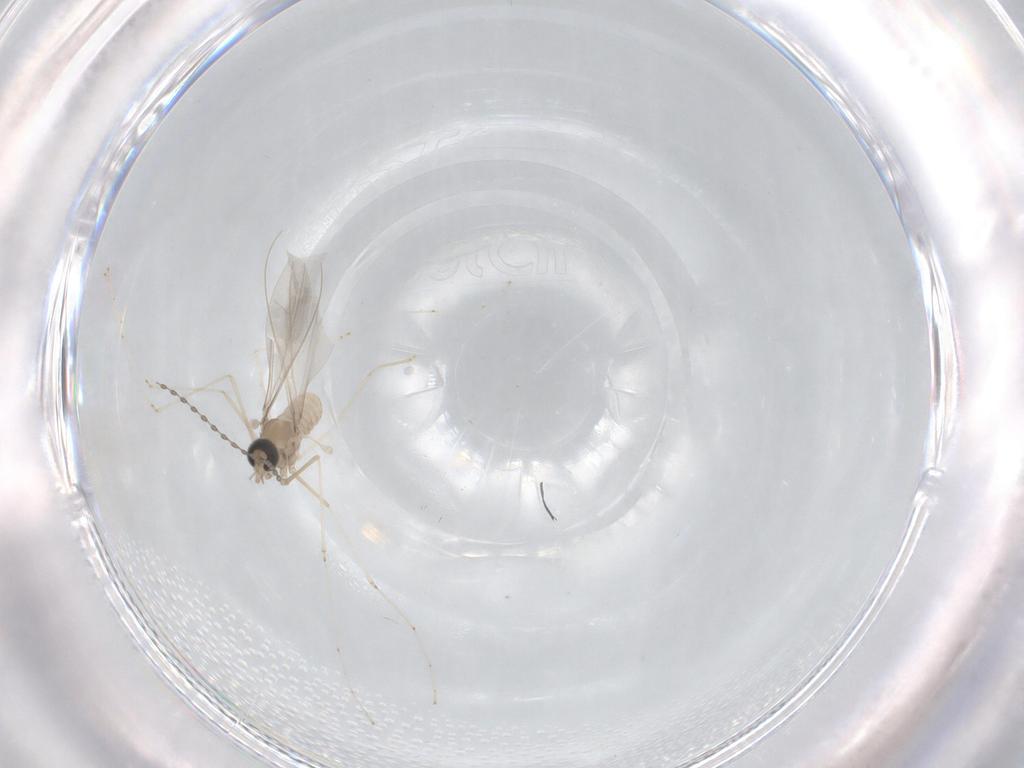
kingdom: Animalia
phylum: Arthropoda
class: Insecta
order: Diptera
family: Cecidomyiidae
